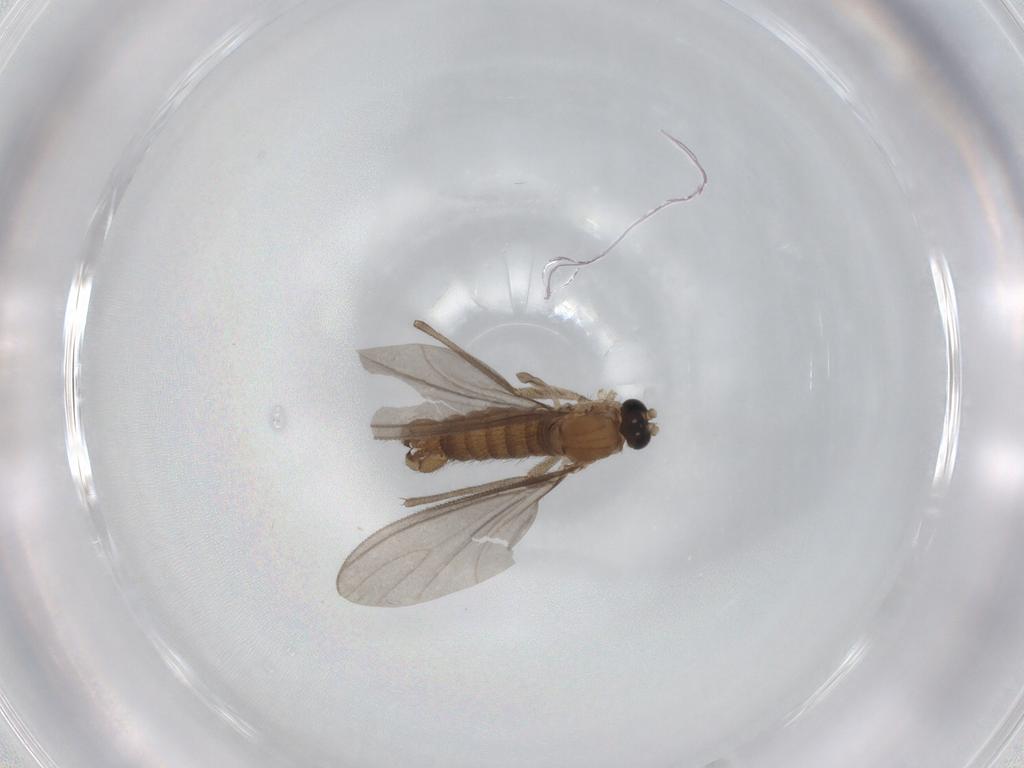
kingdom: Animalia
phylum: Arthropoda
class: Insecta
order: Diptera
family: Sciaridae
